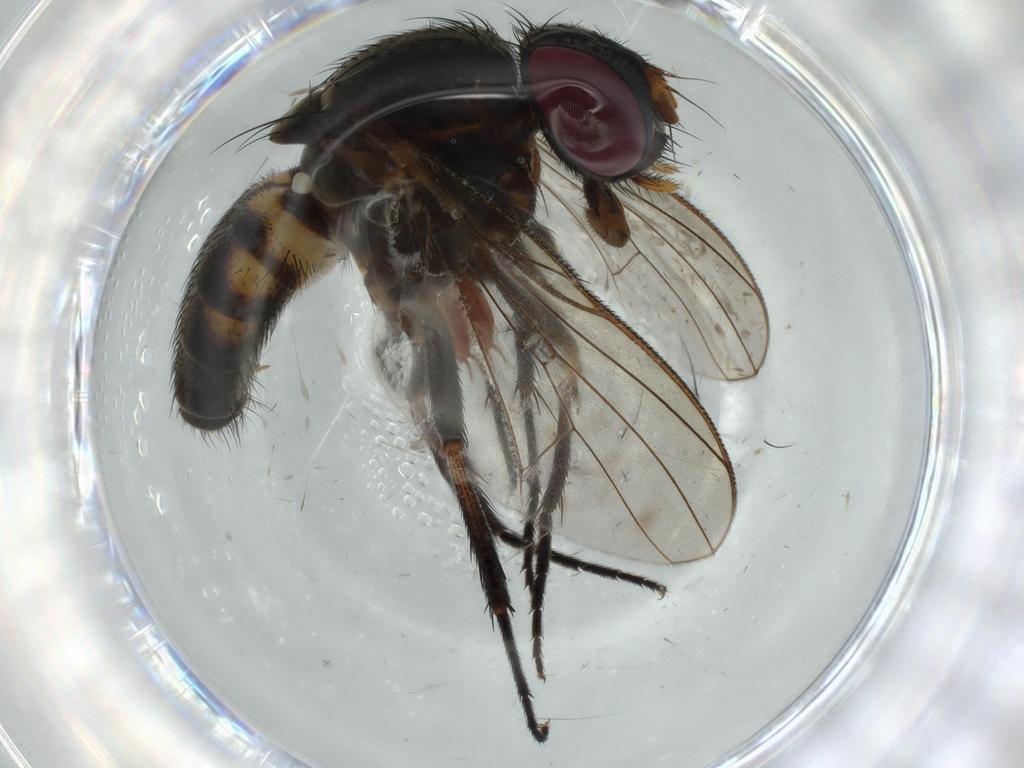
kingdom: Animalia
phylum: Arthropoda
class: Insecta
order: Diptera
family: Fannia
